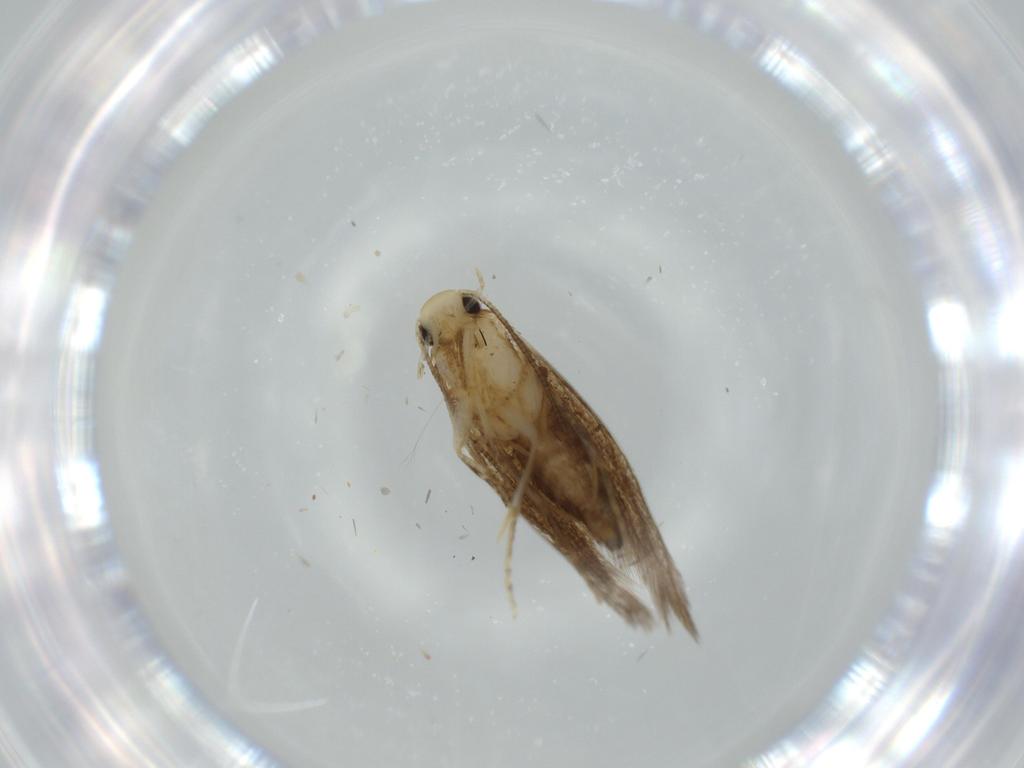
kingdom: Animalia
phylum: Arthropoda
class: Insecta
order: Lepidoptera
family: Tineidae
